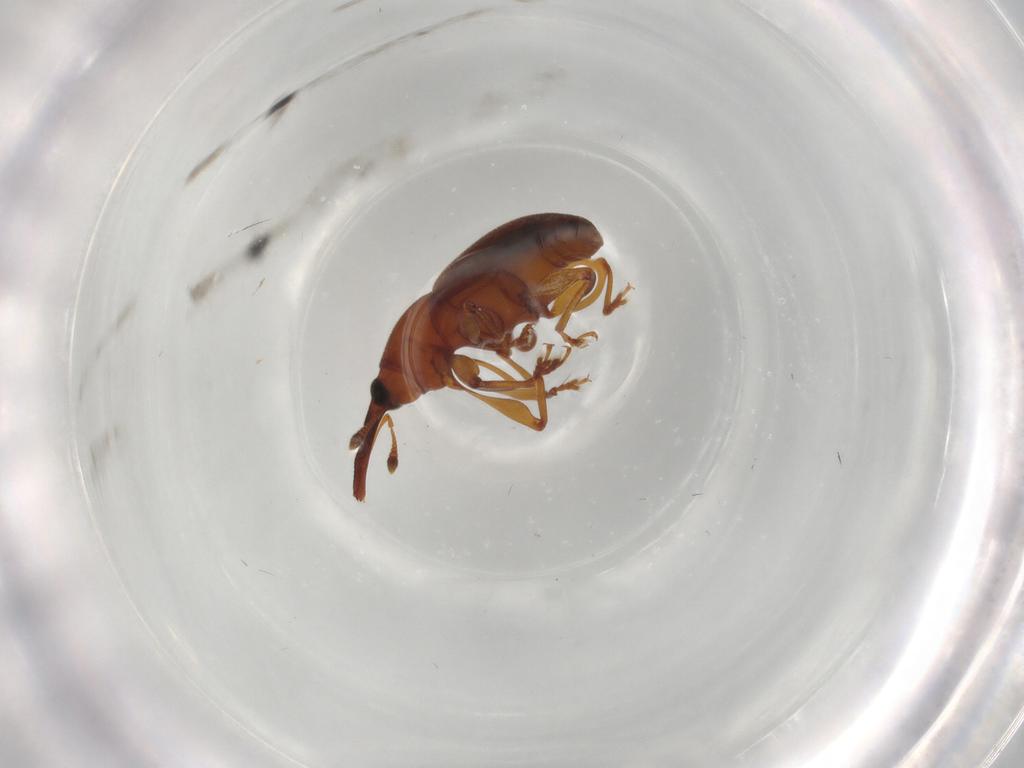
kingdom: Animalia
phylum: Arthropoda
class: Insecta
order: Coleoptera
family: Curculionidae
